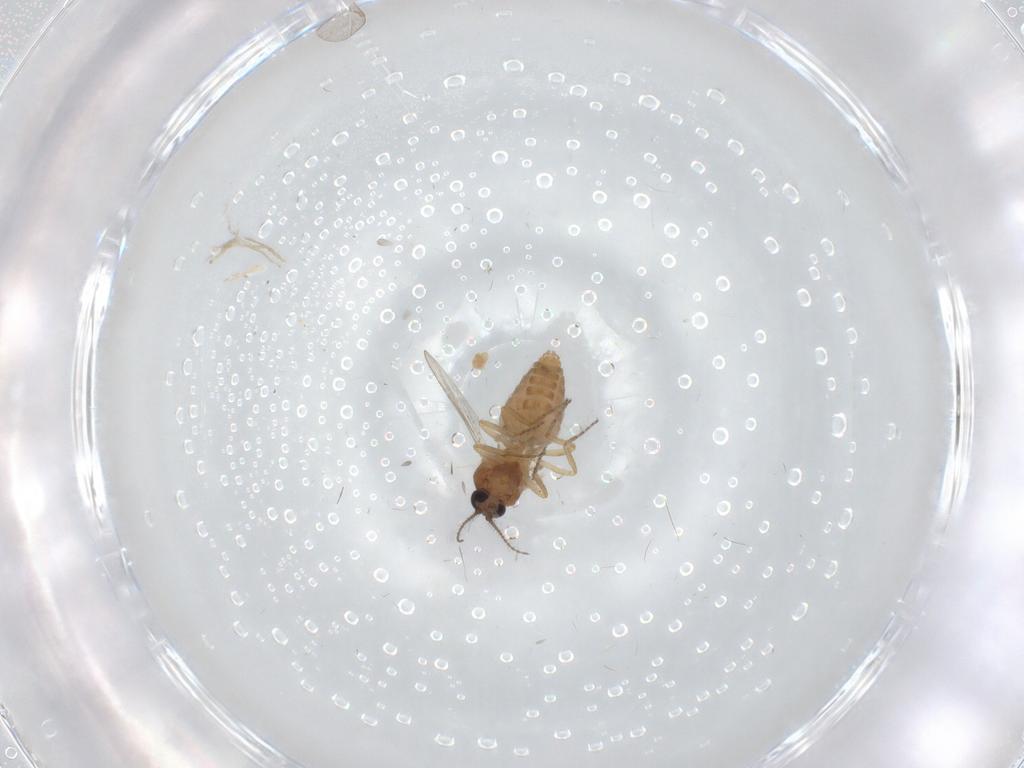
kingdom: Animalia
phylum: Arthropoda
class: Insecta
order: Diptera
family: Ceratopogonidae
